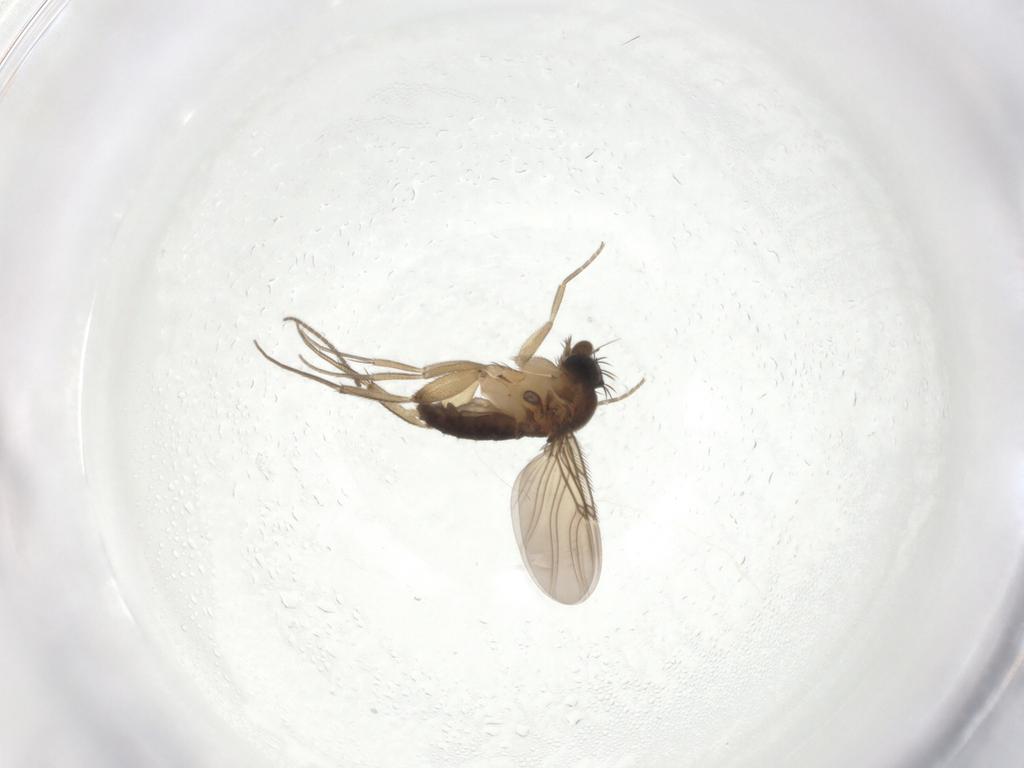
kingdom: Animalia
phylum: Arthropoda
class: Insecta
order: Diptera
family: Phoridae
